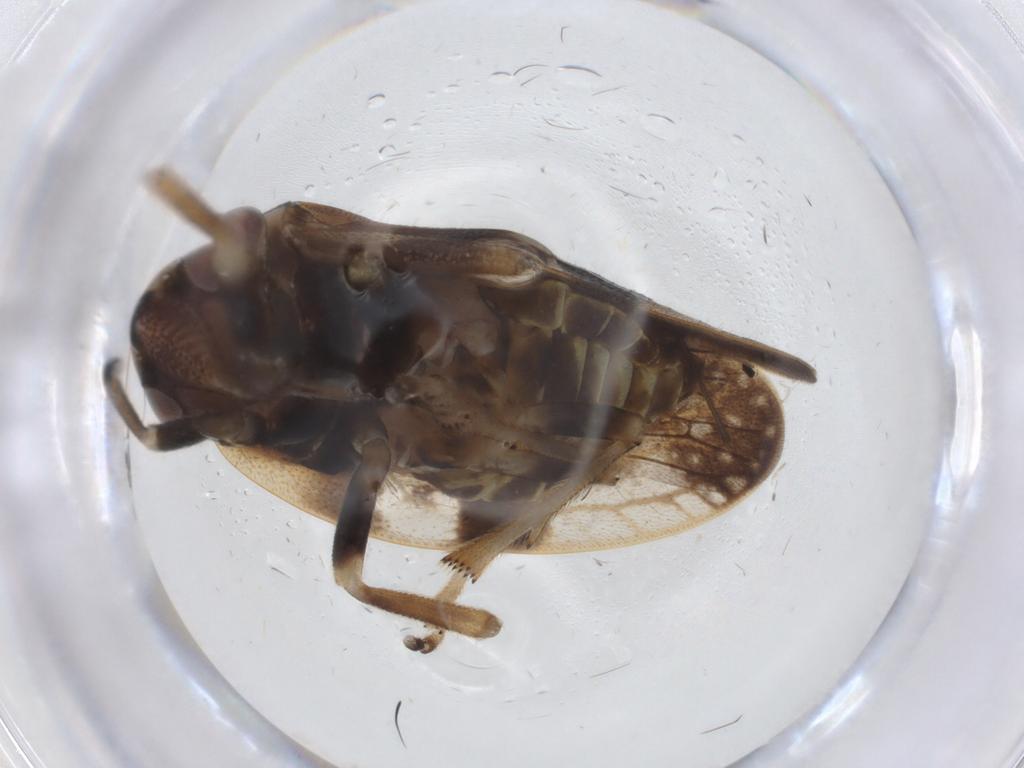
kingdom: Animalia
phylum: Arthropoda
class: Insecta
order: Hemiptera
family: Aphrophoridae
